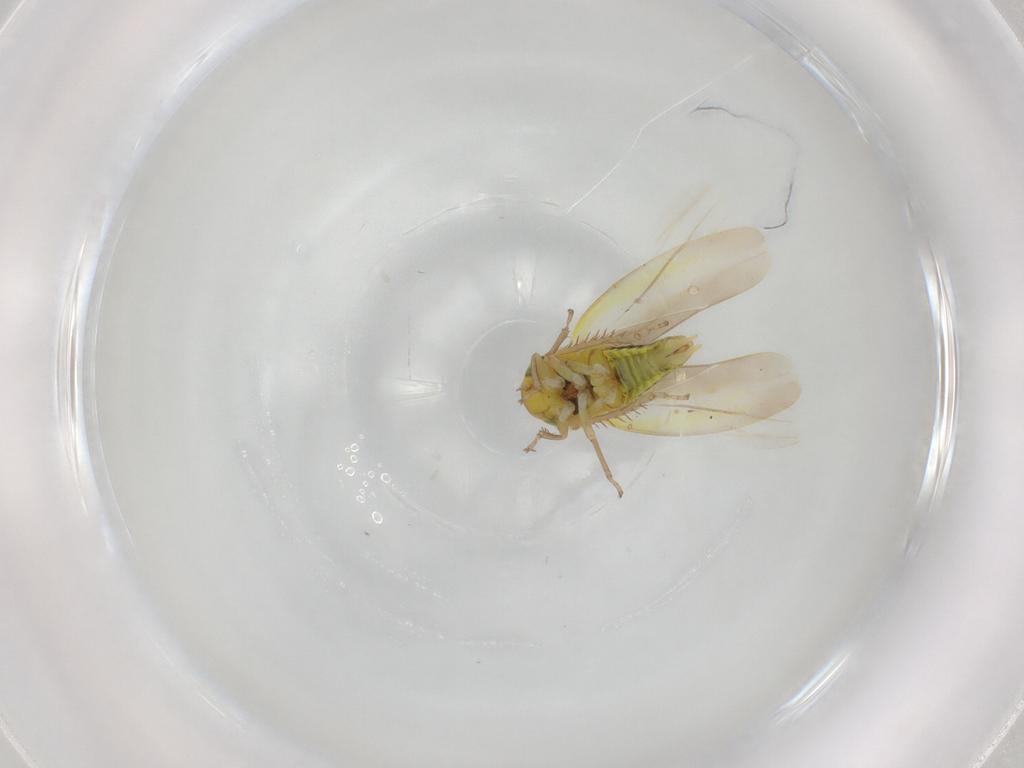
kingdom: Animalia
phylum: Arthropoda
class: Insecta
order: Hemiptera
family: Cicadellidae
